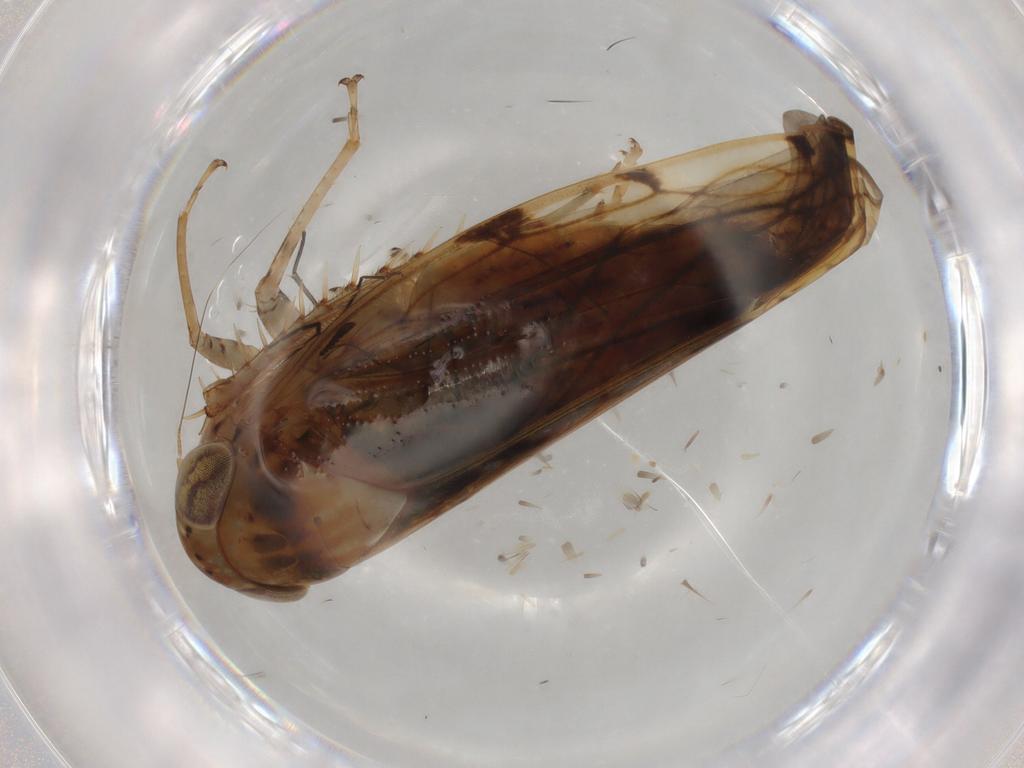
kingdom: Animalia
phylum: Arthropoda
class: Insecta
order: Hemiptera
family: Cicadellidae
